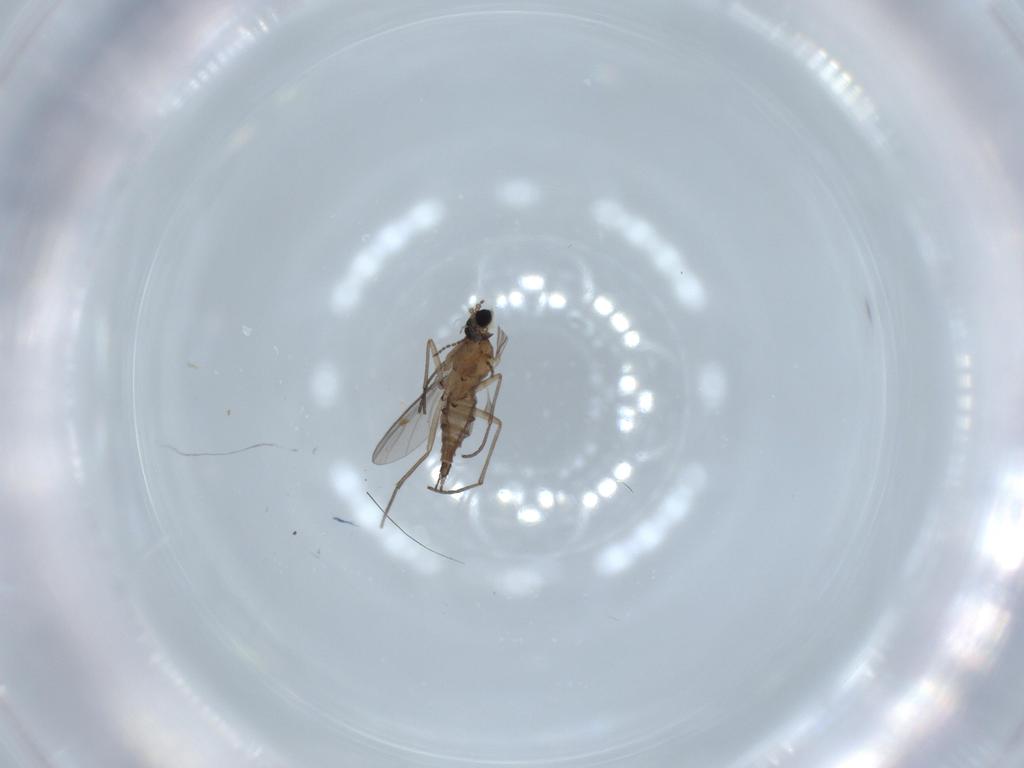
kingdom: Animalia
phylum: Arthropoda
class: Insecta
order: Diptera
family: Sciaridae
